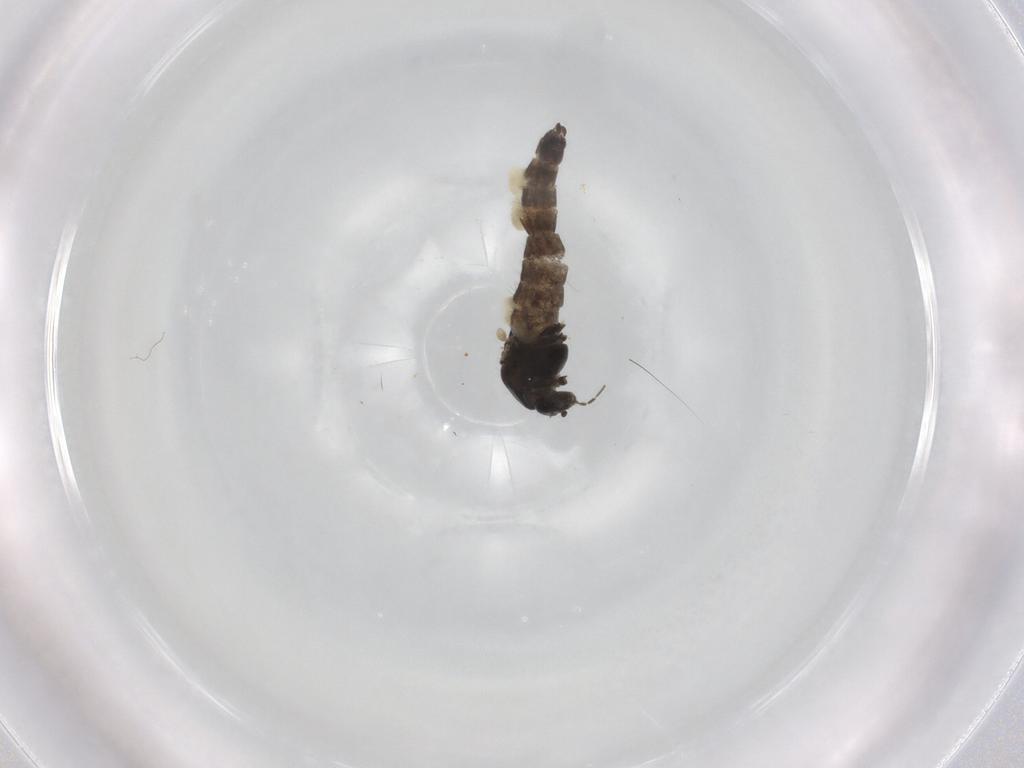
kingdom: Animalia
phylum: Arthropoda
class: Insecta
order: Diptera
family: Chironomidae
